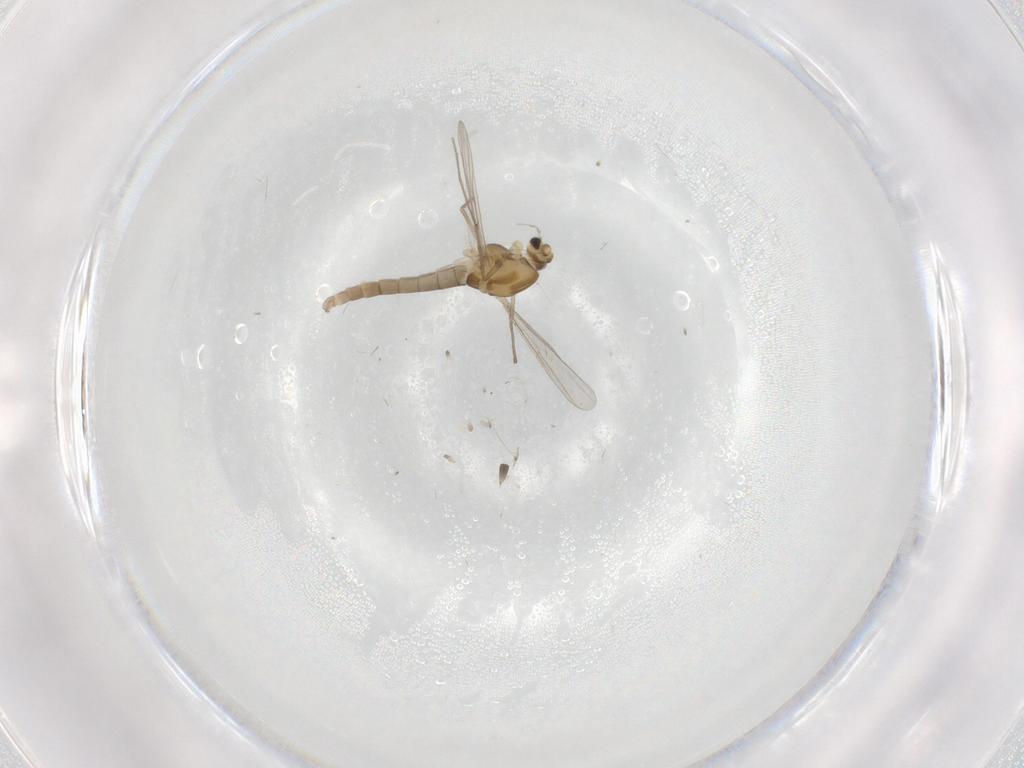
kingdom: Animalia
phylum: Arthropoda
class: Insecta
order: Diptera
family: Chironomidae
